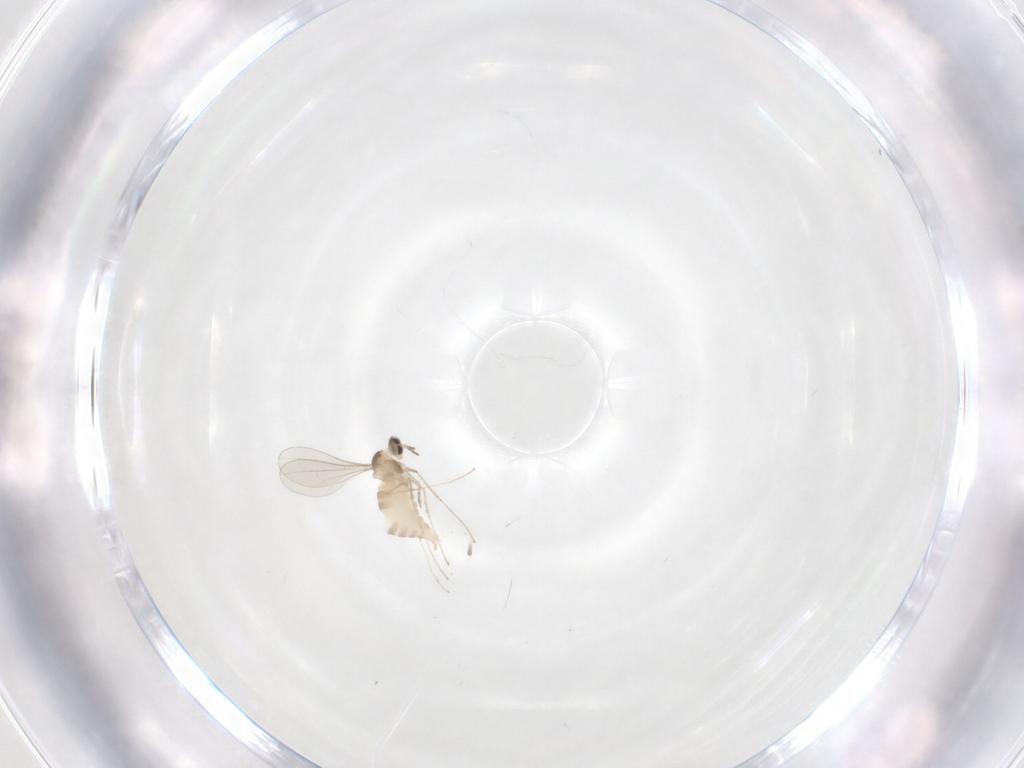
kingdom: Animalia
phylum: Arthropoda
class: Insecta
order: Diptera
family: Cecidomyiidae
